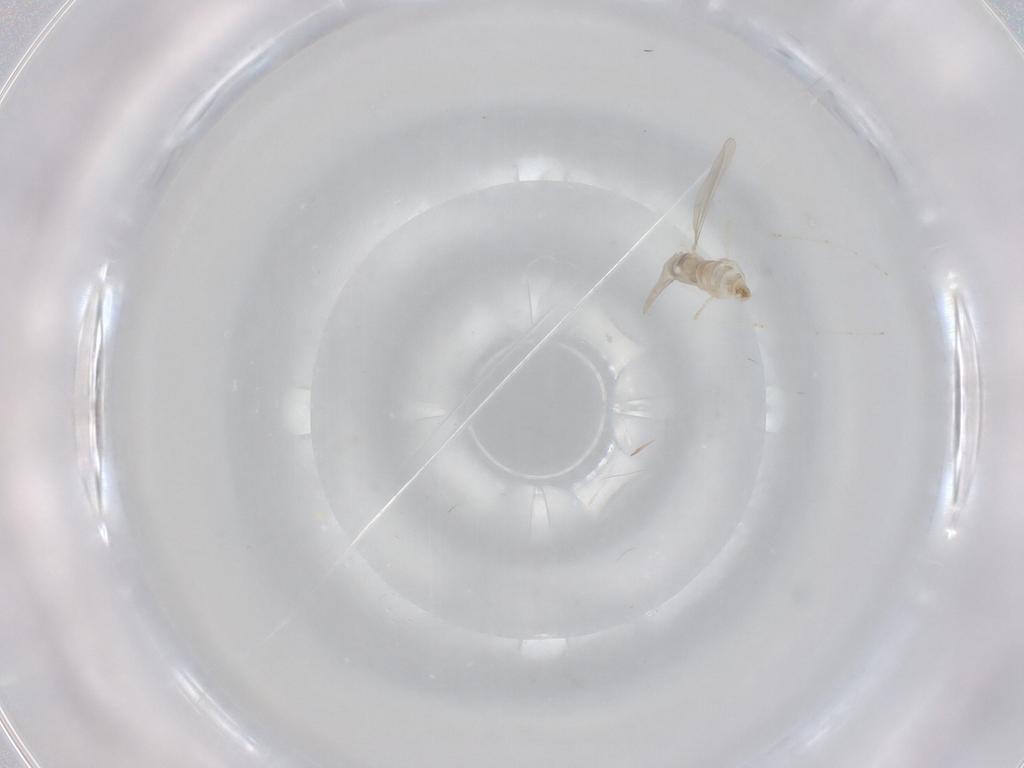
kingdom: Animalia
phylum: Arthropoda
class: Insecta
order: Diptera
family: Cecidomyiidae
